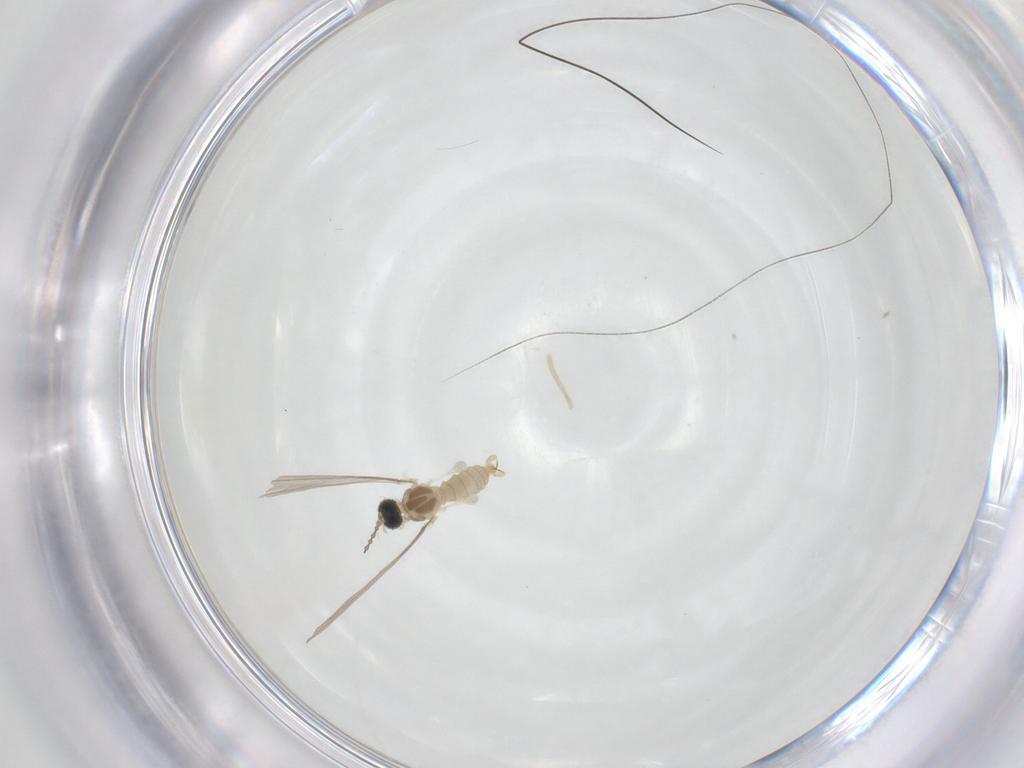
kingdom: Animalia
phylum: Arthropoda
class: Insecta
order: Diptera
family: Cecidomyiidae
